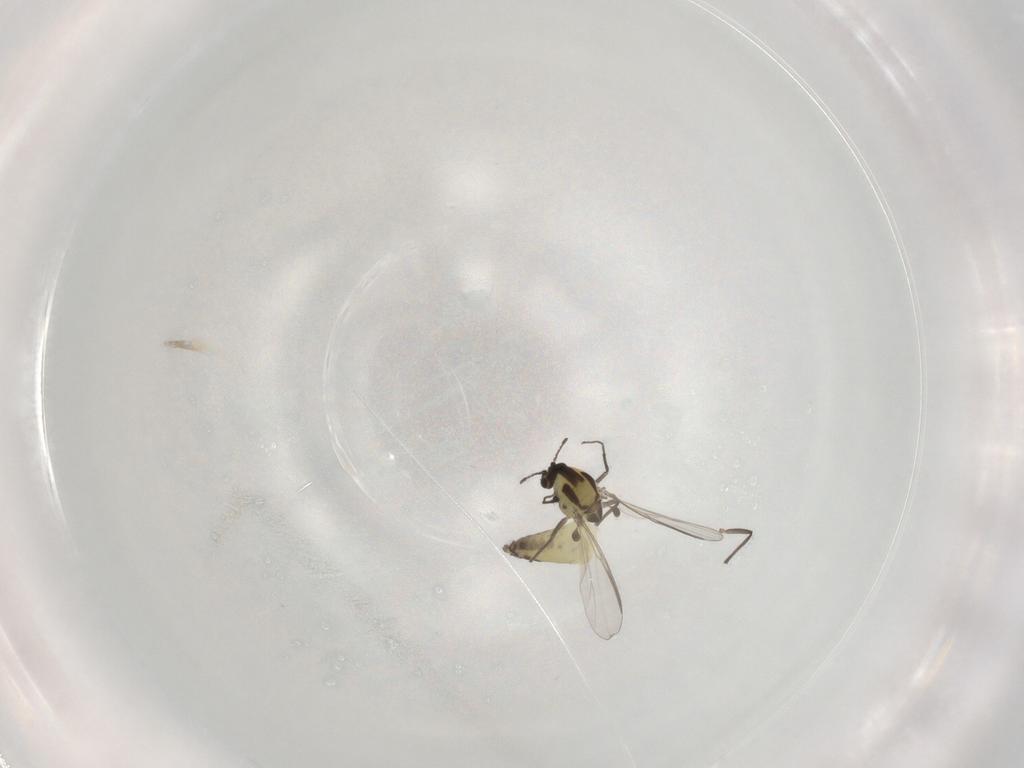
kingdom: Animalia
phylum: Arthropoda
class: Insecta
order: Diptera
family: Chironomidae
